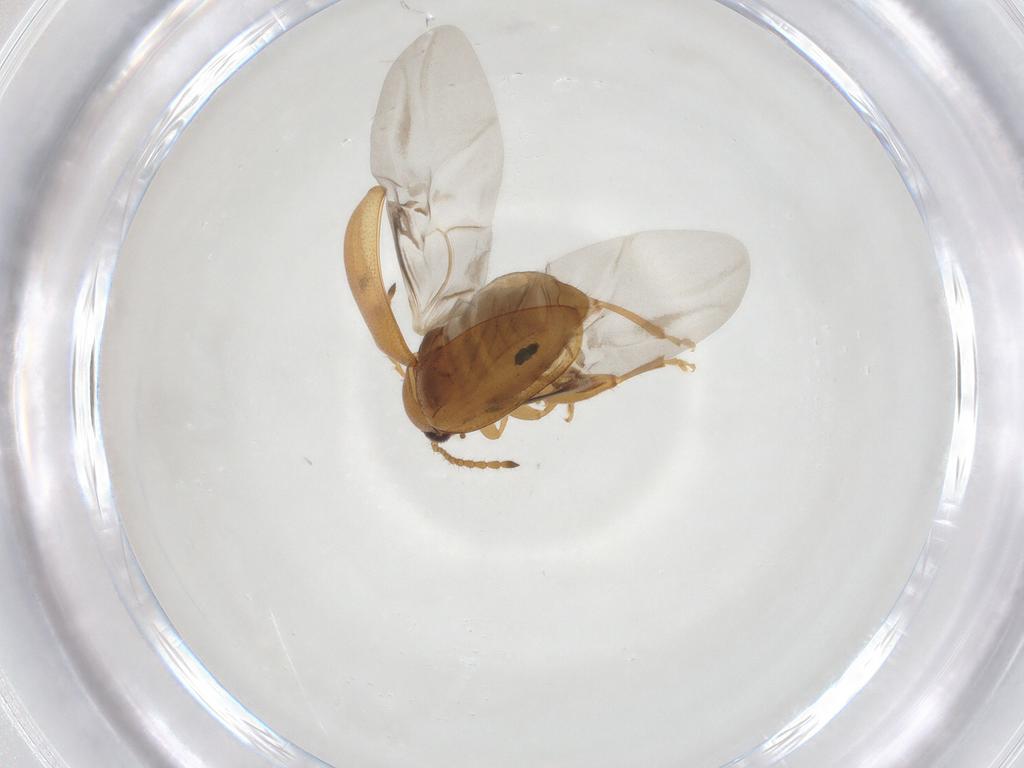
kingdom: Animalia
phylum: Arthropoda
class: Insecta
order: Coleoptera
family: Chrysomelidae
